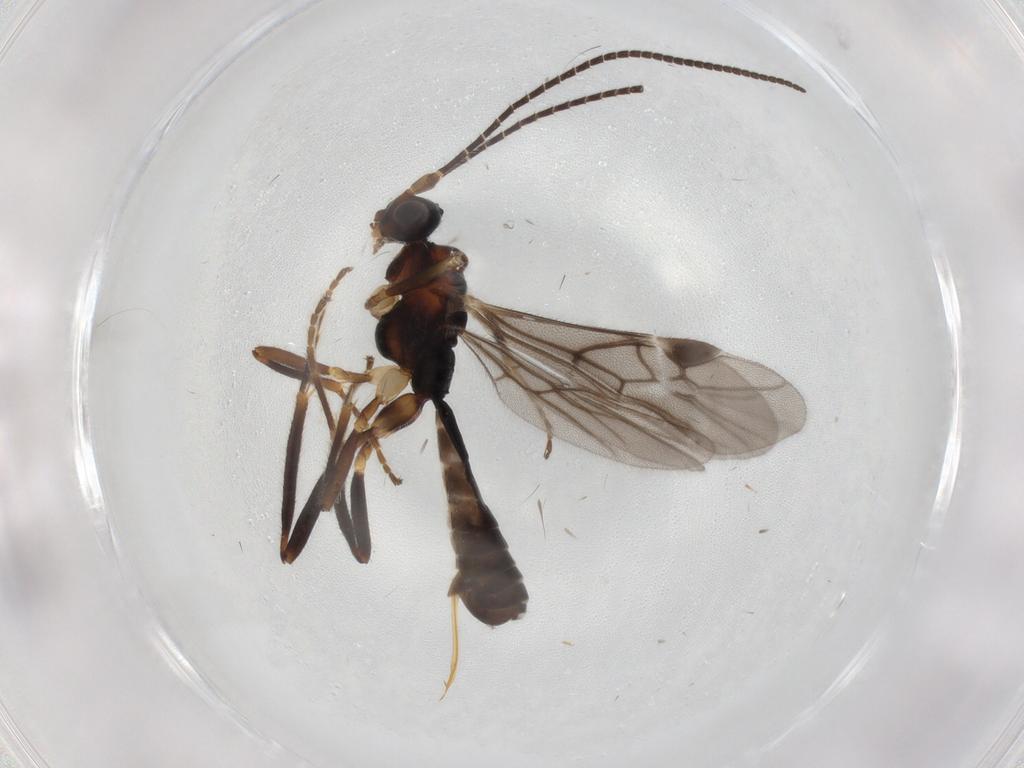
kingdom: Animalia
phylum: Arthropoda
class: Insecta
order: Hymenoptera
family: Braconidae
